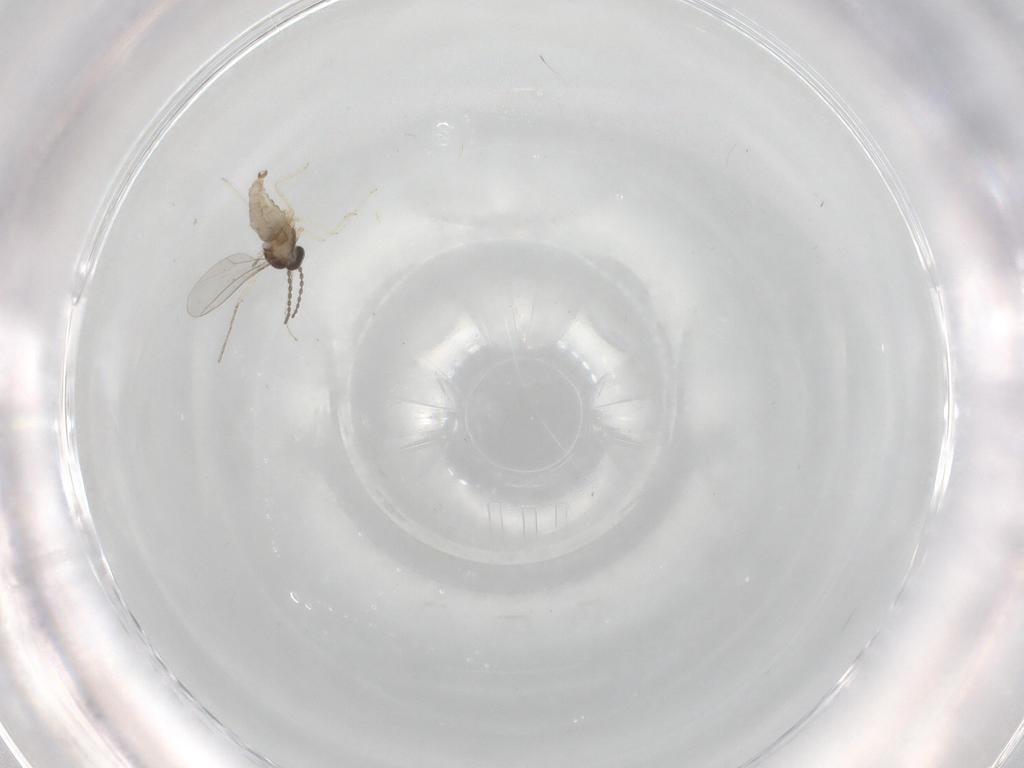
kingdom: Animalia
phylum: Arthropoda
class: Insecta
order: Diptera
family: Cecidomyiidae
